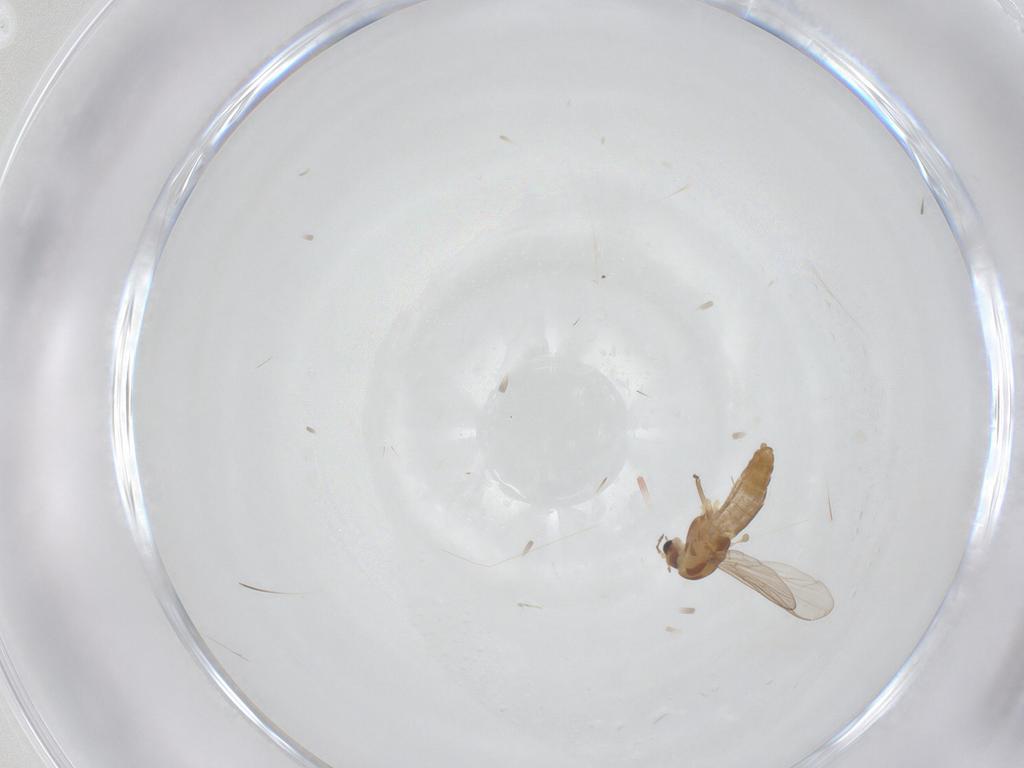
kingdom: Animalia
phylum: Arthropoda
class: Insecta
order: Diptera
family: Chironomidae
